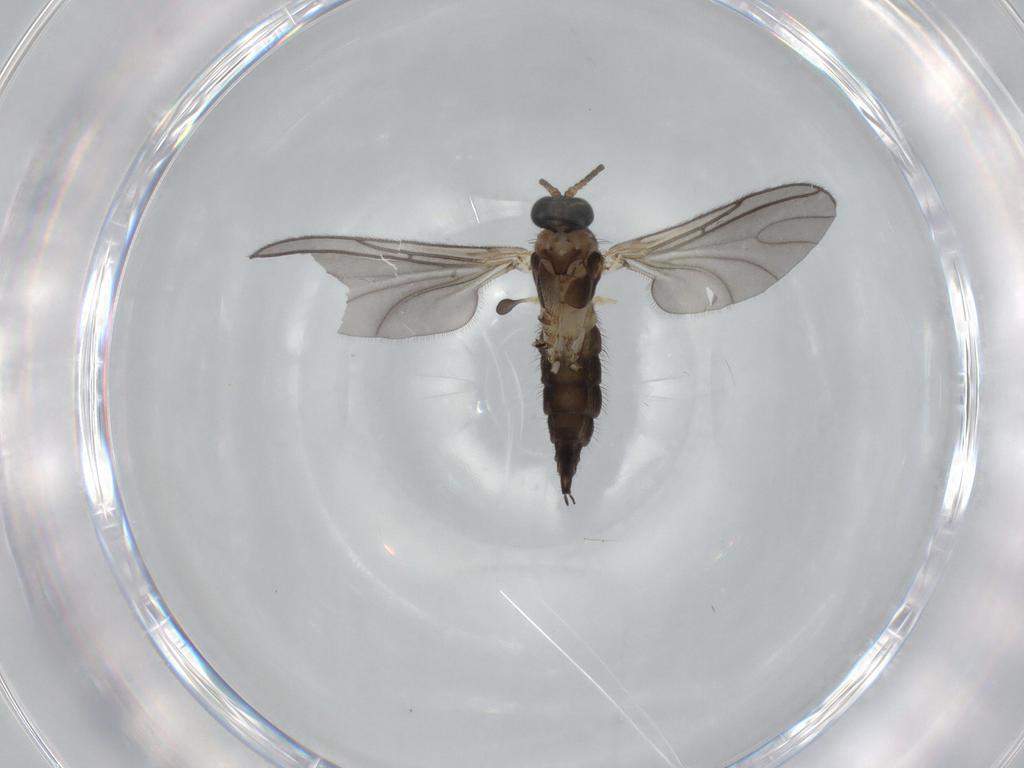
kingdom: Animalia
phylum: Arthropoda
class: Insecta
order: Diptera
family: Sciaridae
